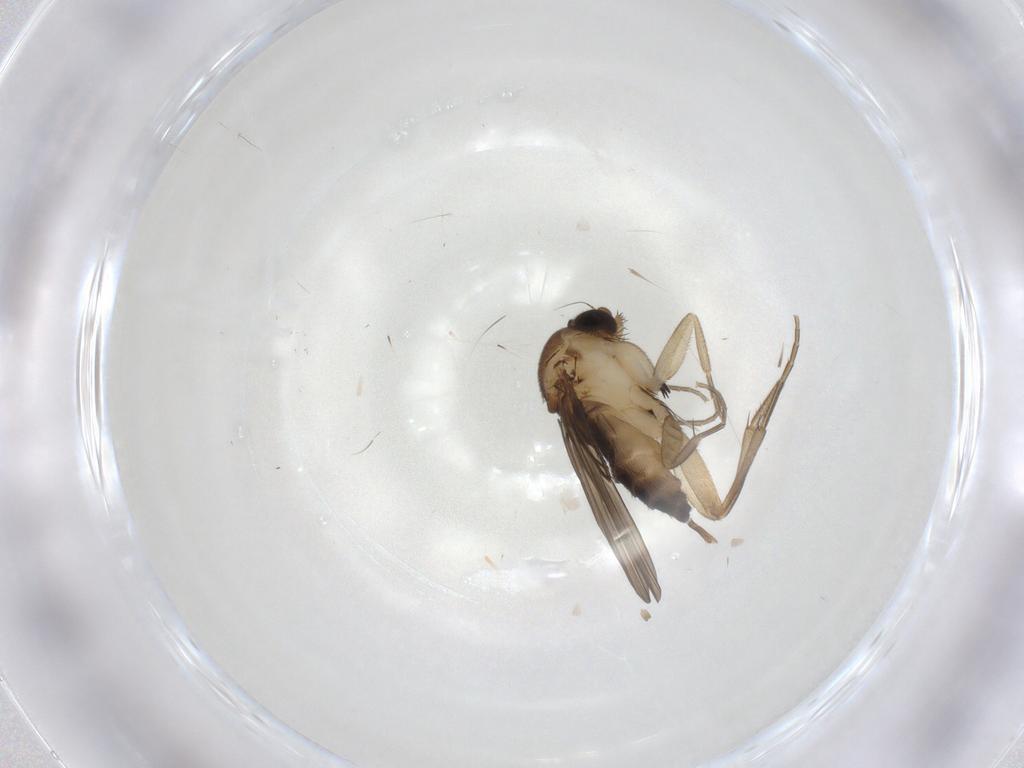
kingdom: Animalia
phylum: Arthropoda
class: Insecta
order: Diptera
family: Phoridae
